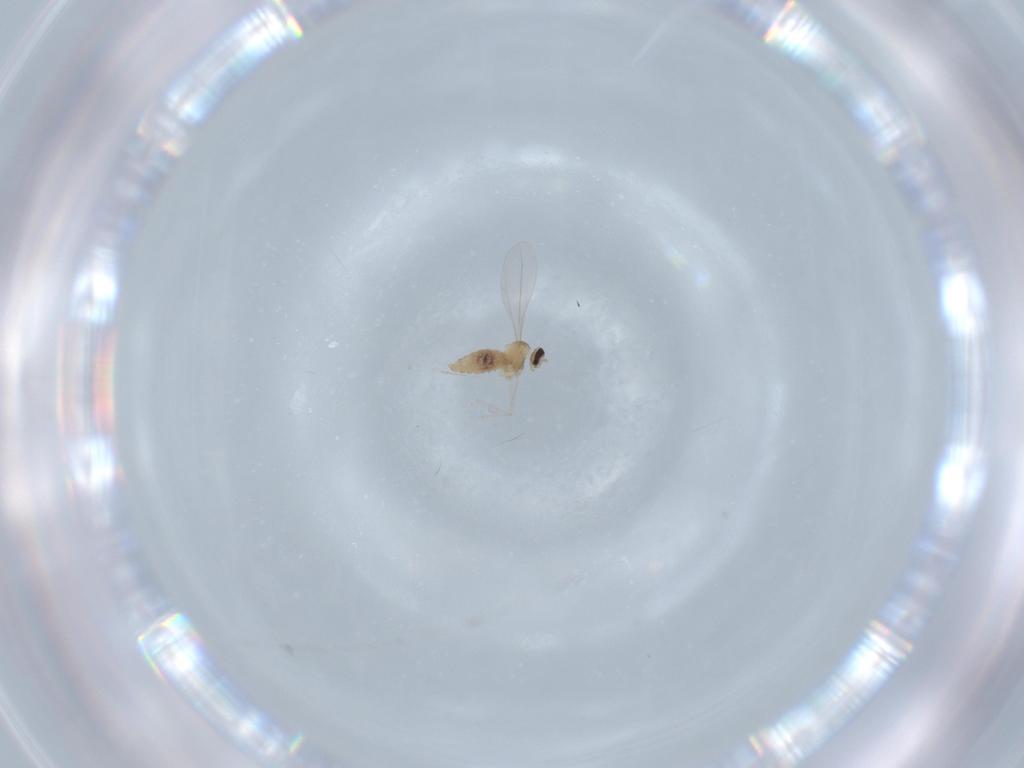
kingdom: Animalia
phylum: Arthropoda
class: Insecta
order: Diptera
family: Cecidomyiidae
